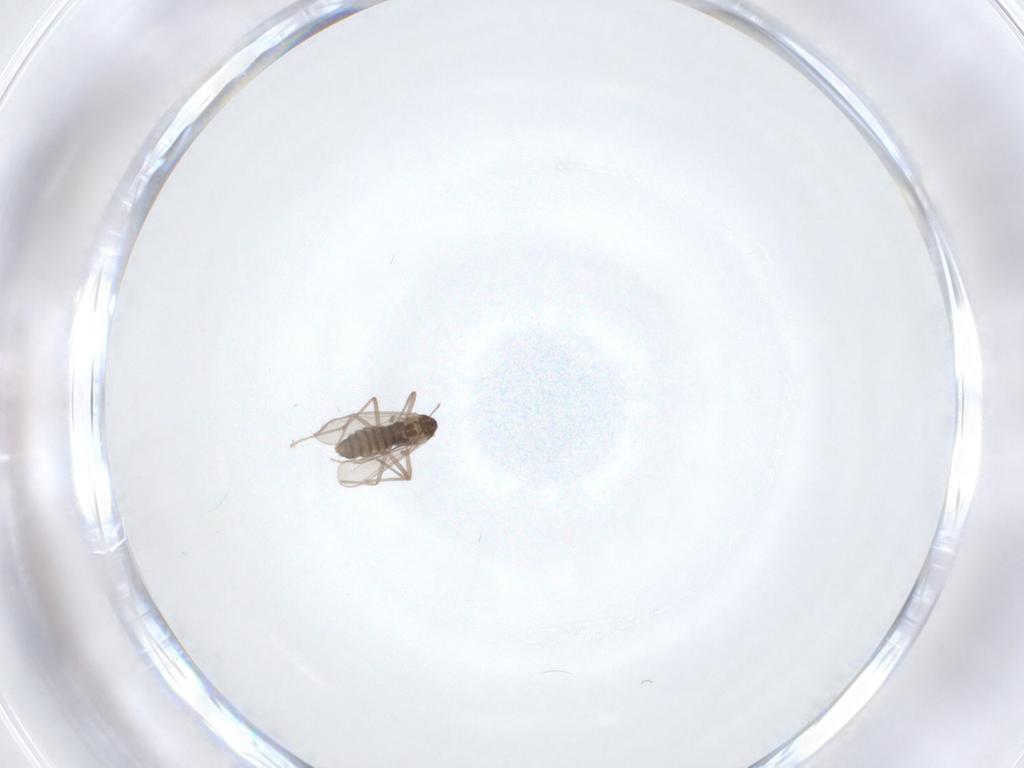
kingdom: Animalia
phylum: Arthropoda
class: Insecta
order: Diptera
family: Chironomidae
